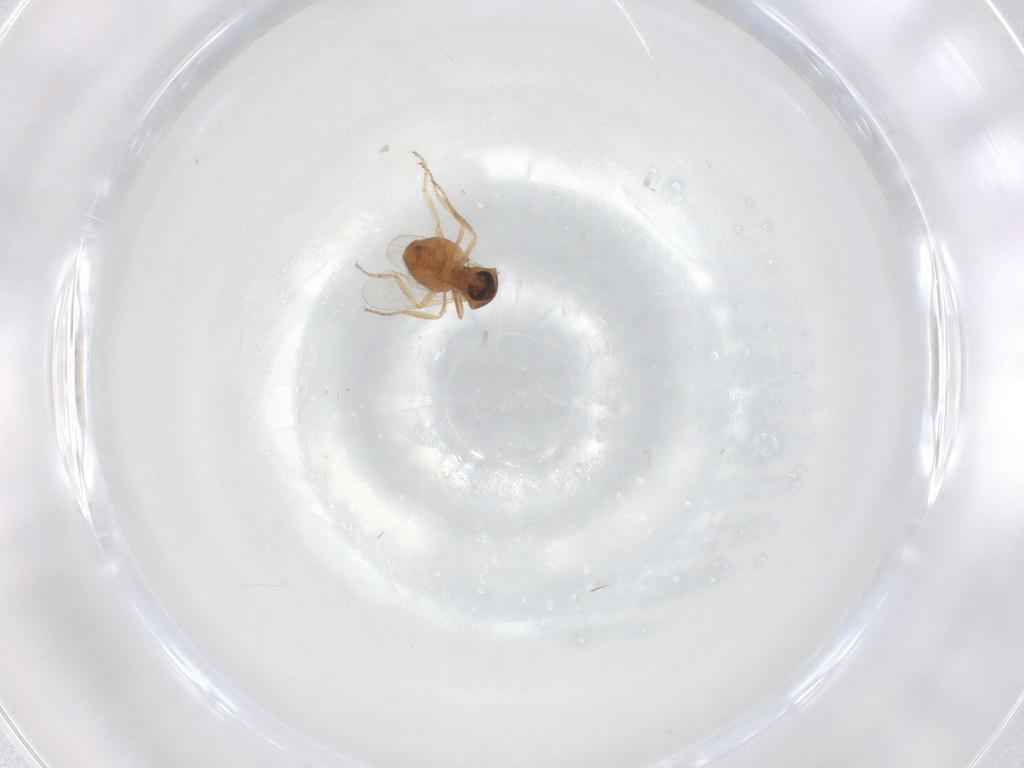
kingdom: Animalia
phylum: Arthropoda
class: Insecta
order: Diptera
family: Ceratopogonidae
